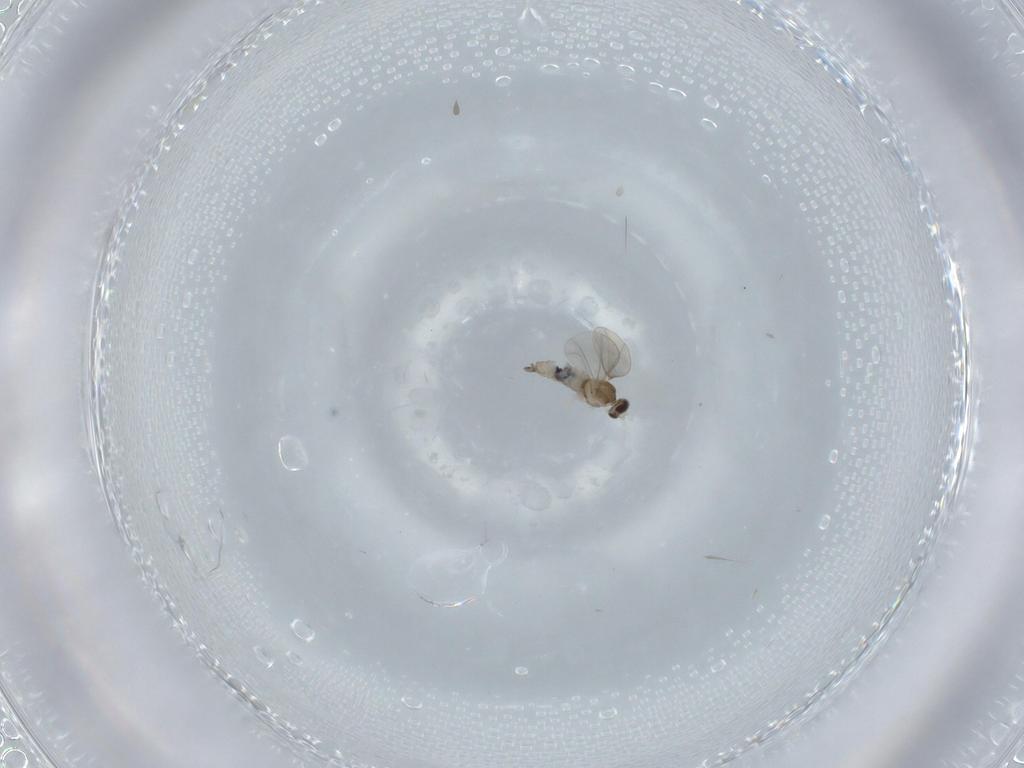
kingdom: Animalia
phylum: Arthropoda
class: Insecta
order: Diptera
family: Cecidomyiidae
